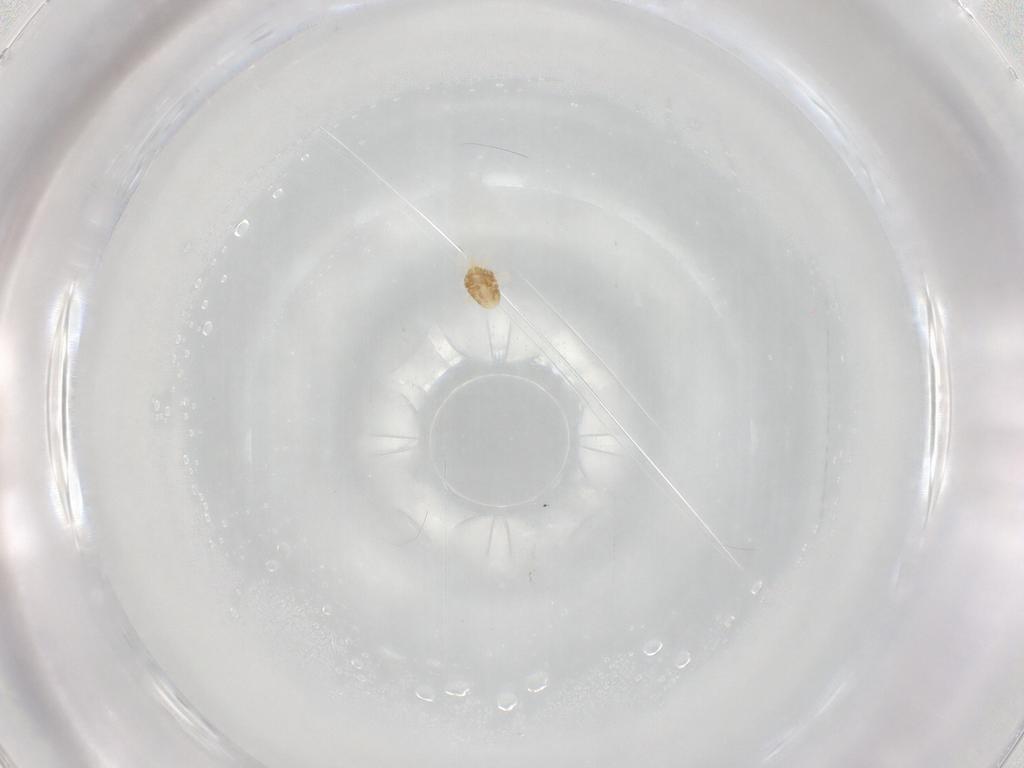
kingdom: Animalia
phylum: Arthropoda
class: Arachnida
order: Trombidiformes
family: Eupodidae
